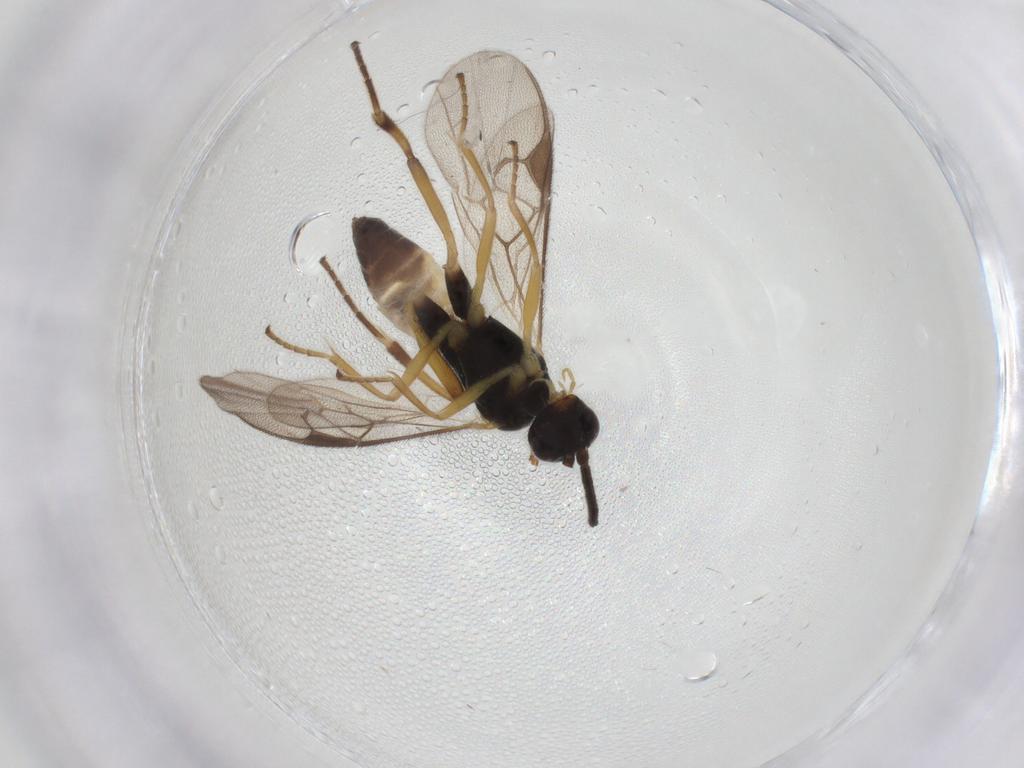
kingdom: Animalia
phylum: Arthropoda
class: Insecta
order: Hymenoptera
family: Braconidae
